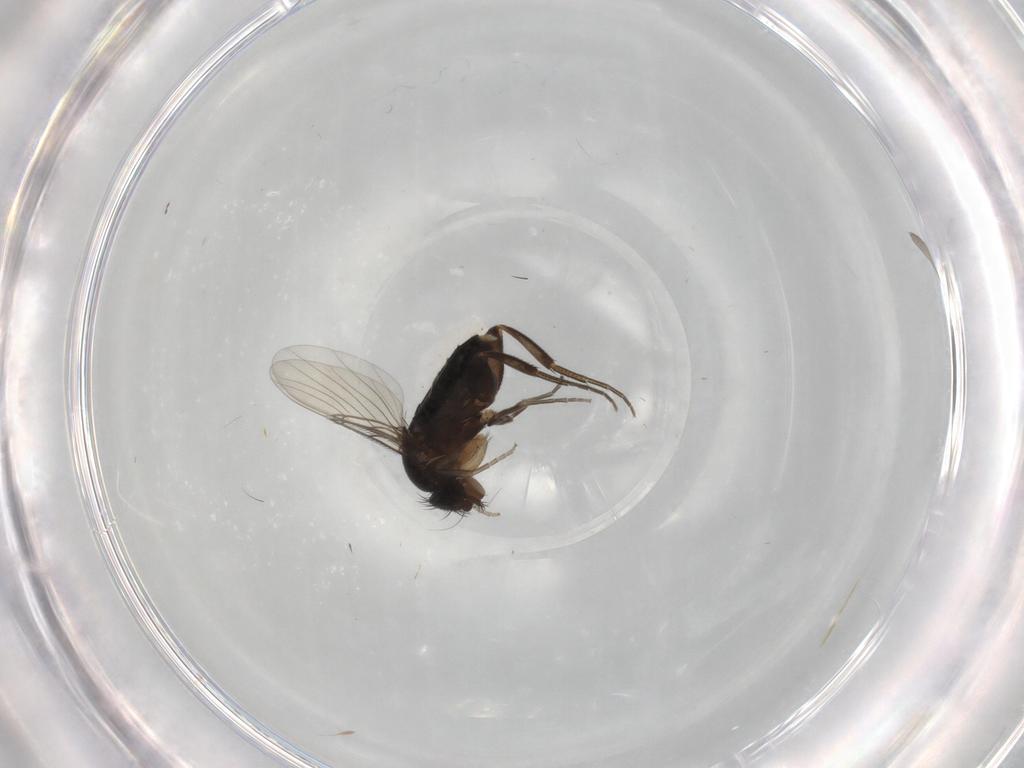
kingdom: Animalia
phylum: Arthropoda
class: Insecta
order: Diptera
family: Phoridae
